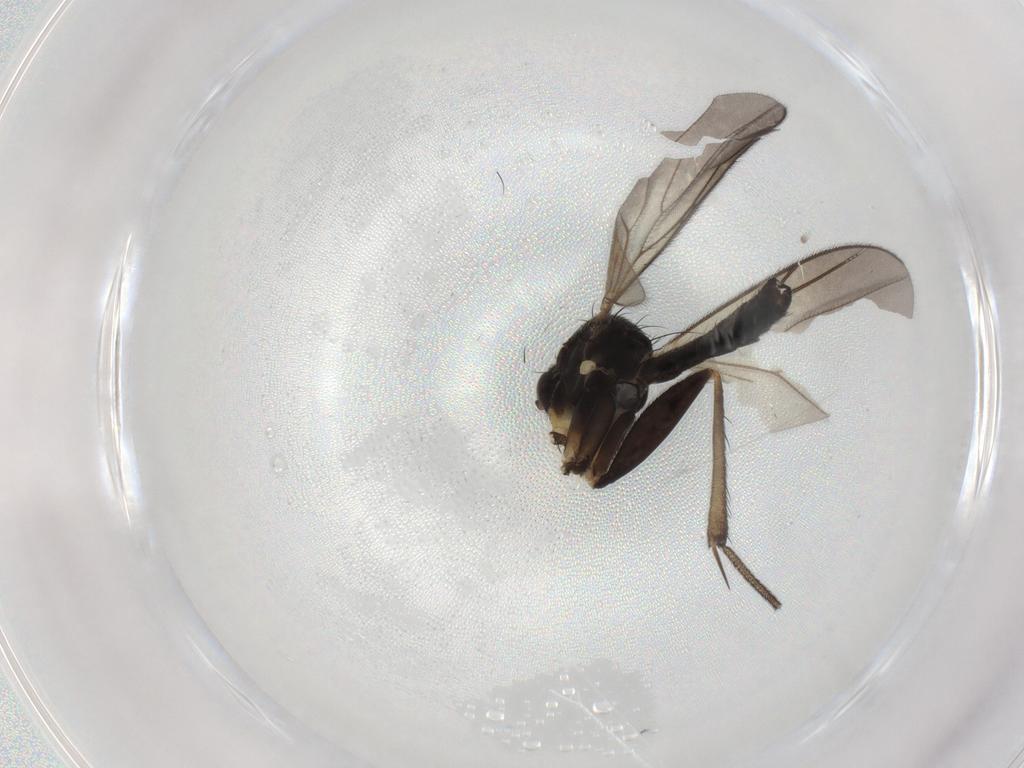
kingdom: Animalia
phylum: Arthropoda
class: Insecta
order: Diptera
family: Mycetophilidae
